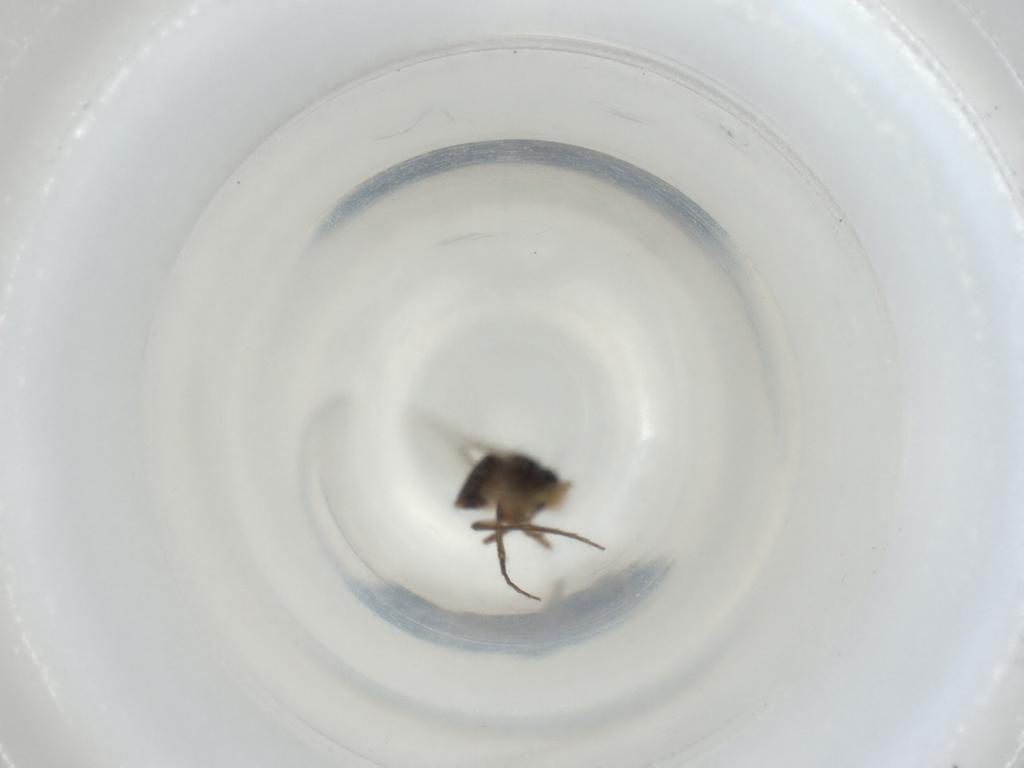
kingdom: Animalia
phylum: Arthropoda
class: Insecta
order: Diptera
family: Phoridae
